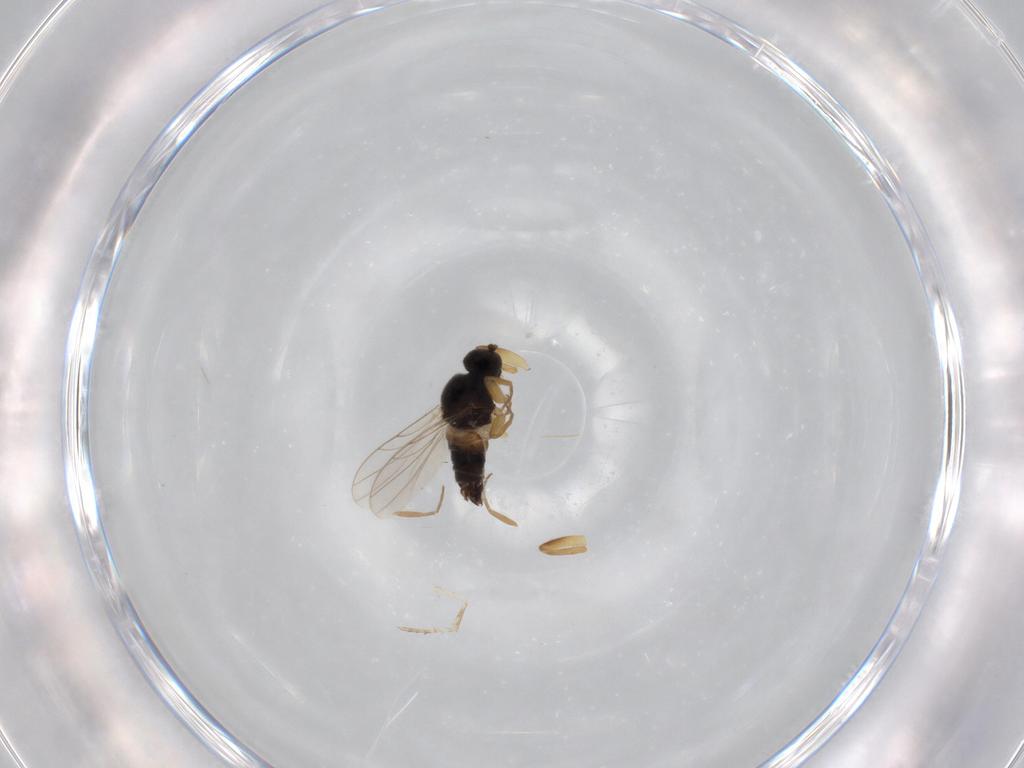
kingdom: Animalia
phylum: Arthropoda
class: Insecta
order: Diptera
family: Hybotidae
